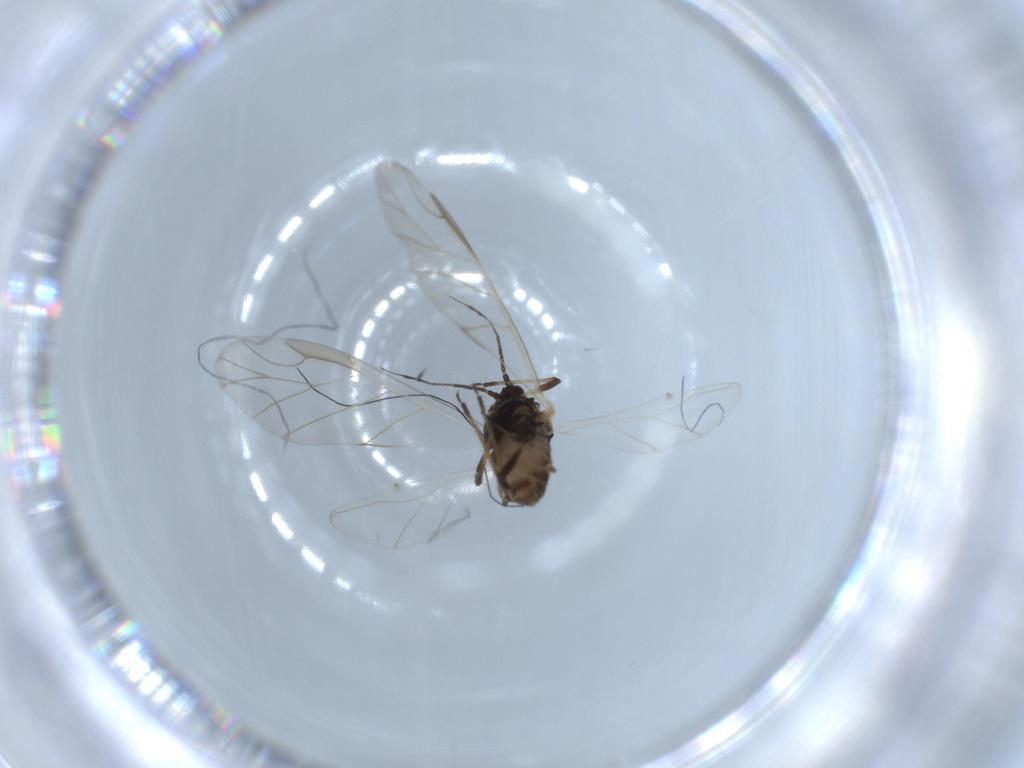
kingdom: Animalia
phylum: Arthropoda
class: Insecta
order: Hemiptera
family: Aphididae
